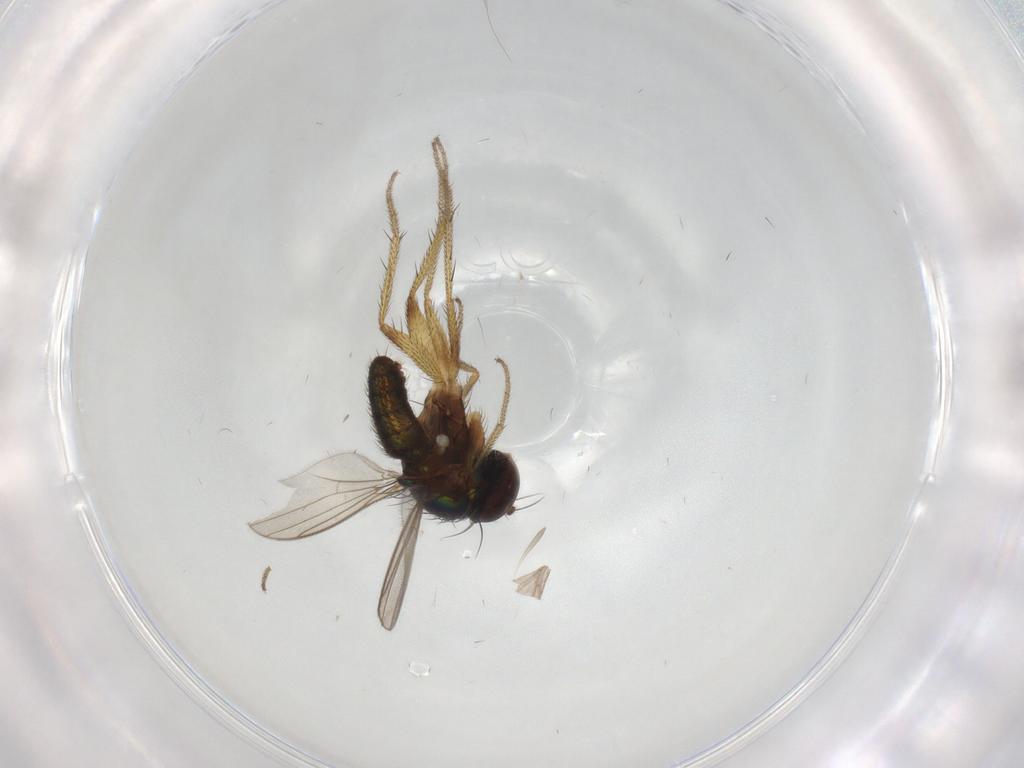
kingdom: Animalia
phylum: Arthropoda
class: Insecta
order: Diptera
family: Dolichopodidae
